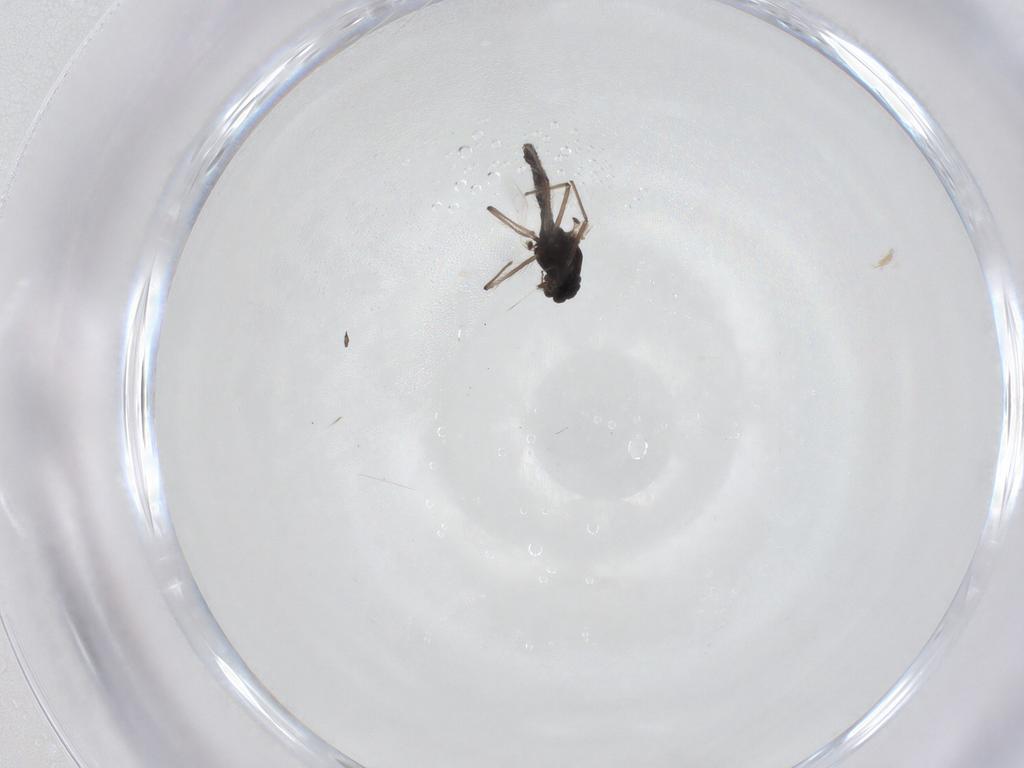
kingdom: Animalia
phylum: Arthropoda
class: Insecta
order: Diptera
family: Chironomidae
